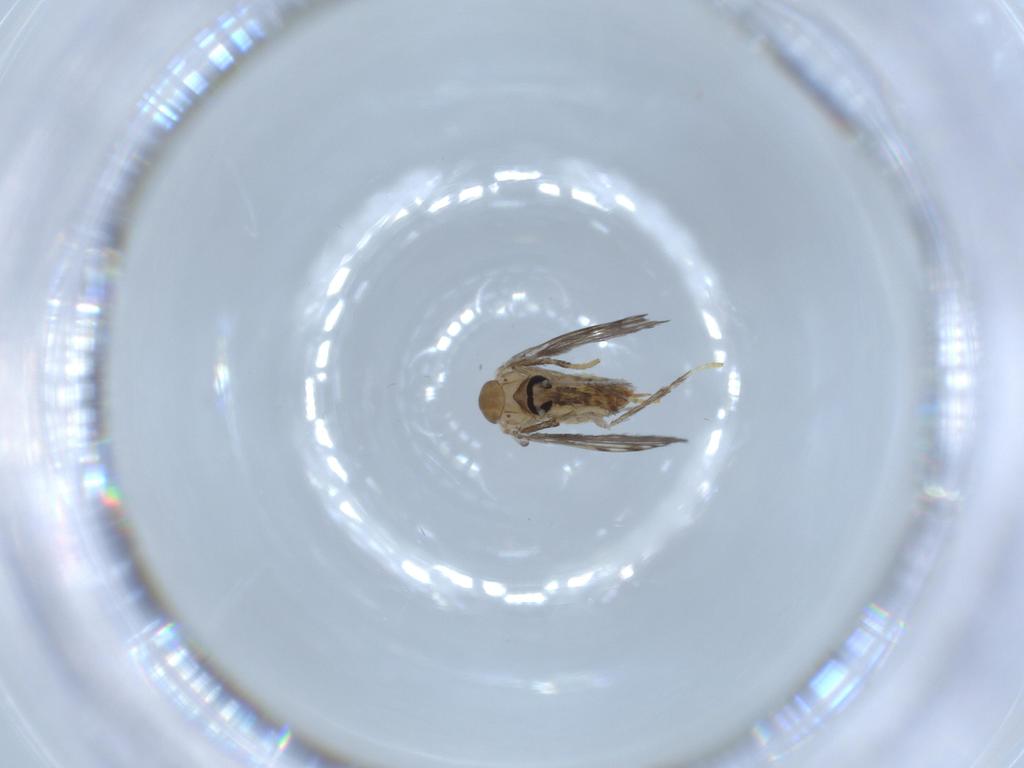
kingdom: Animalia
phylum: Arthropoda
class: Insecta
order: Diptera
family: Psychodidae
